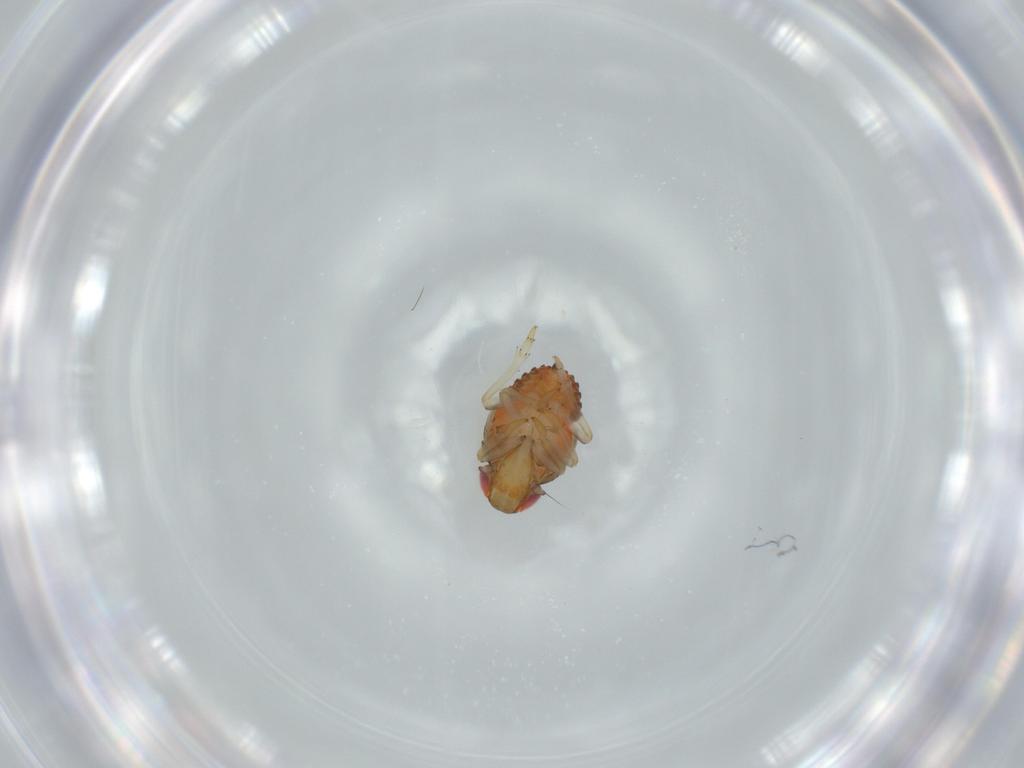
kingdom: Animalia
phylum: Arthropoda
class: Insecta
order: Hemiptera
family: Issidae
